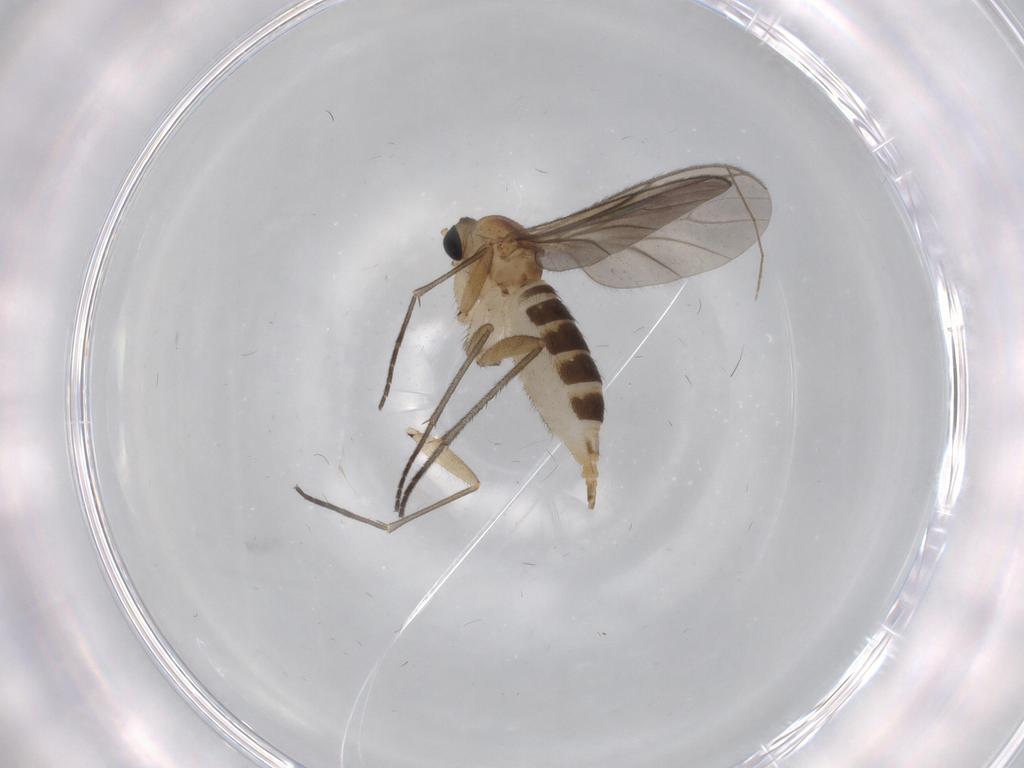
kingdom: Animalia
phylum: Arthropoda
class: Insecta
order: Diptera
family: Sciaridae
